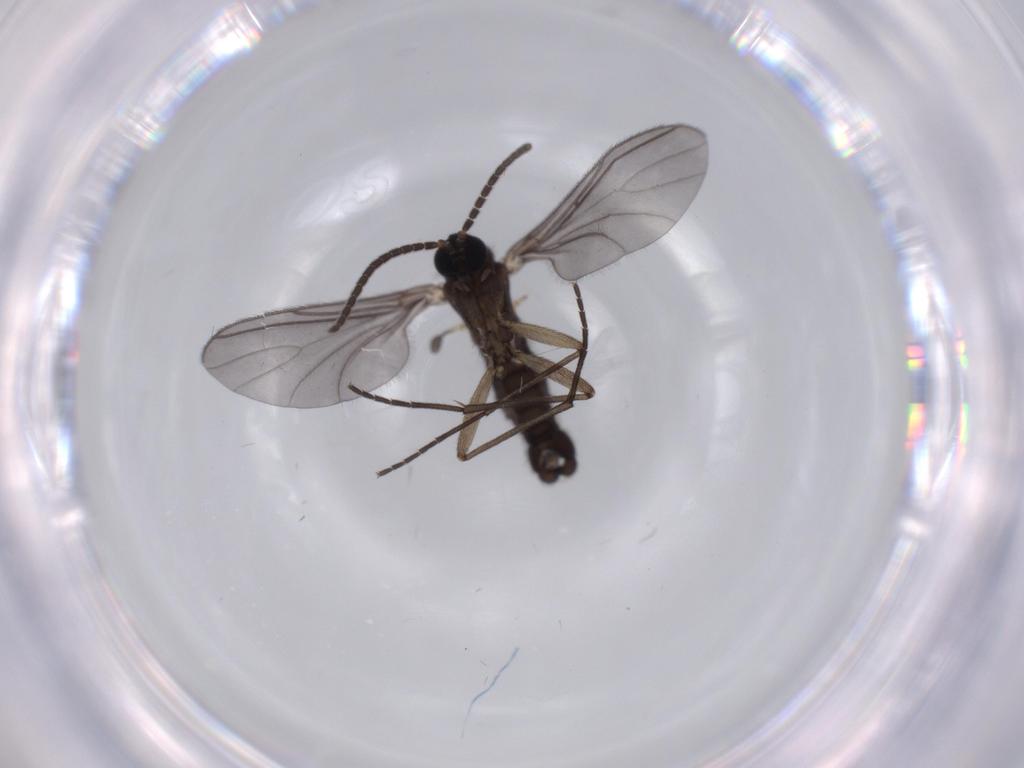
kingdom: Animalia
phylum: Arthropoda
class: Insecta
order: Diptera
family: Sciaridae
